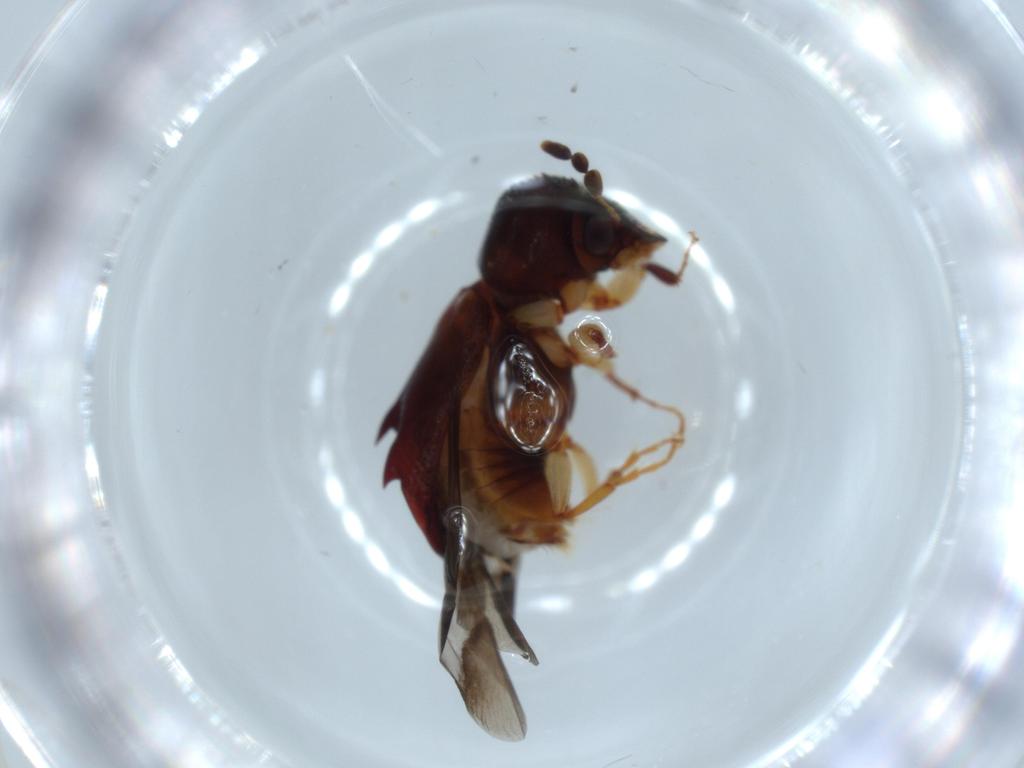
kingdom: Animalia
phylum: Arthropoda
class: Insecta
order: Coleoptera
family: Bostrichidae
